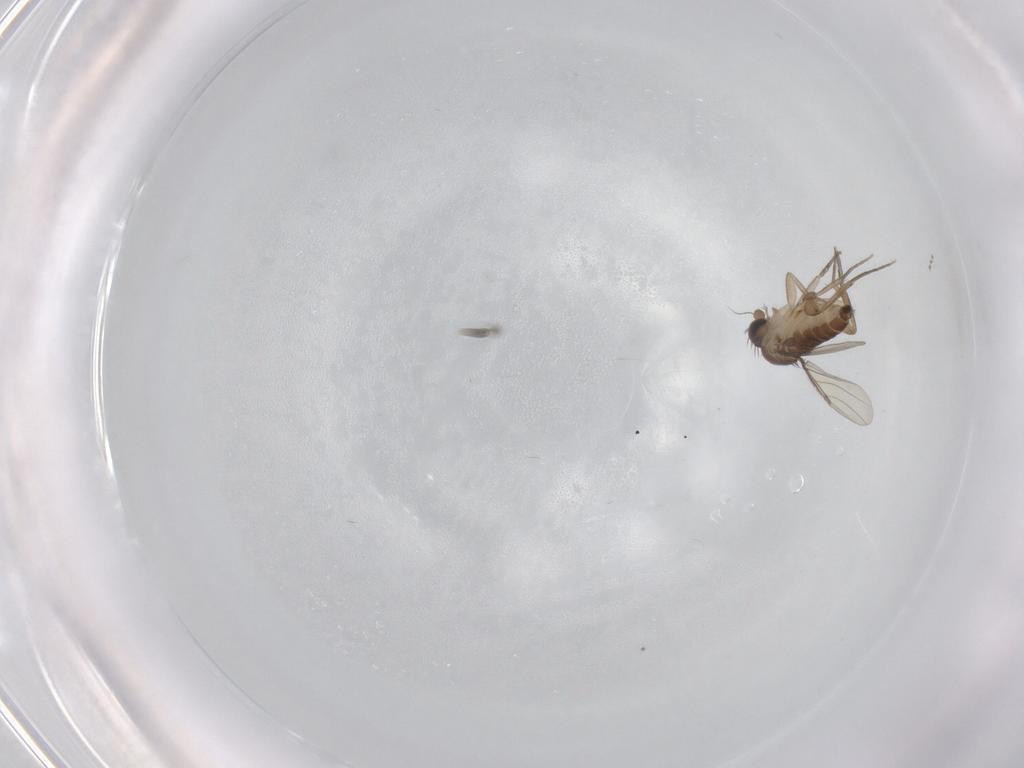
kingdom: Animalia
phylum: Arthropoda
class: Insecta
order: Diptera
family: Phoridae
